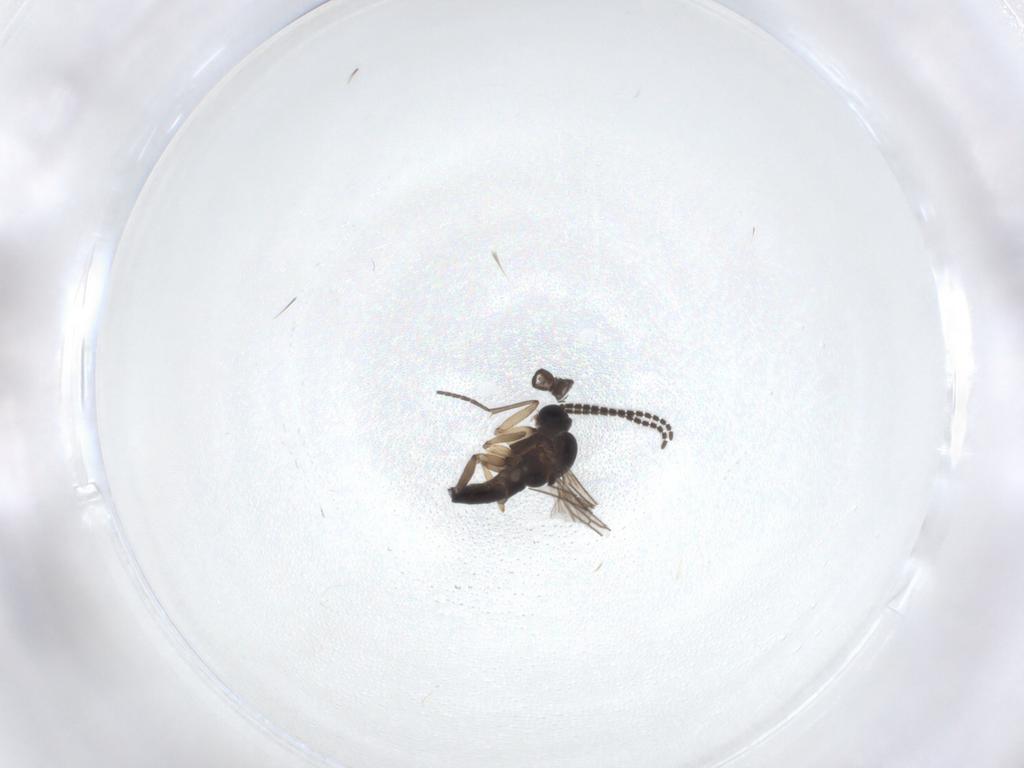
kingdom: Animalia
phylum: Arthropoda
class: Insecta
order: Diptera
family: Sciaridae
